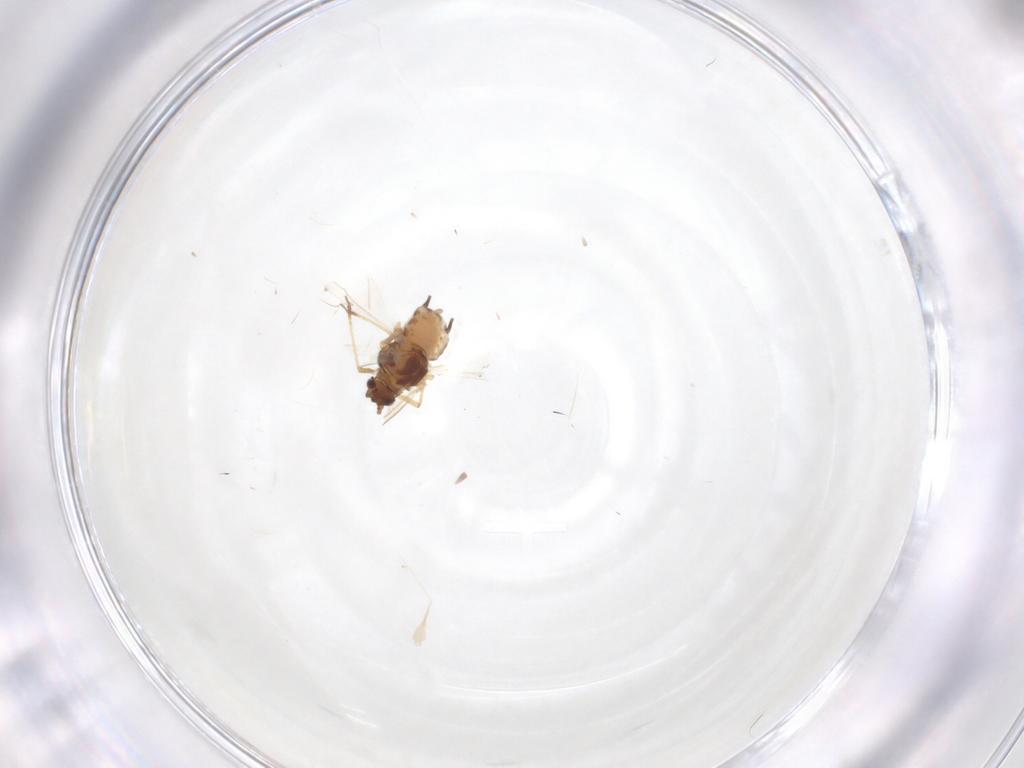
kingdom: Animalia
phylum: Arthropoda
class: Insecta
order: Hemiptera
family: Aphididae
